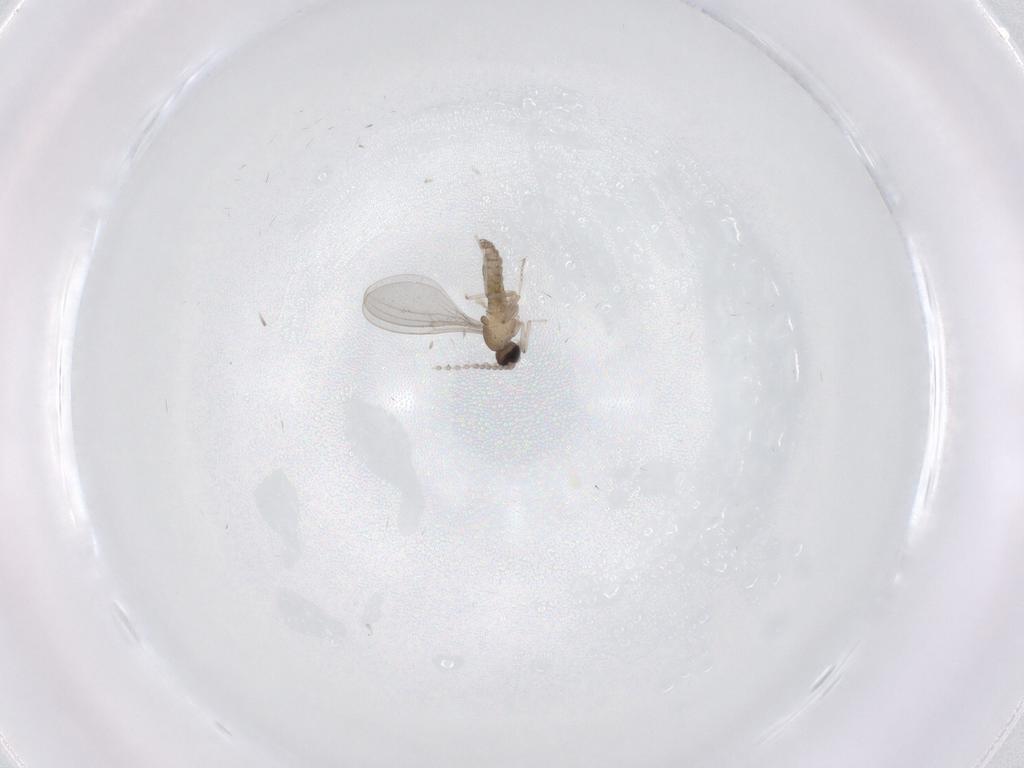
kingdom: Animalia
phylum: Arthropoda
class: Insecta
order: Diptera
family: Cecidomyiidae
